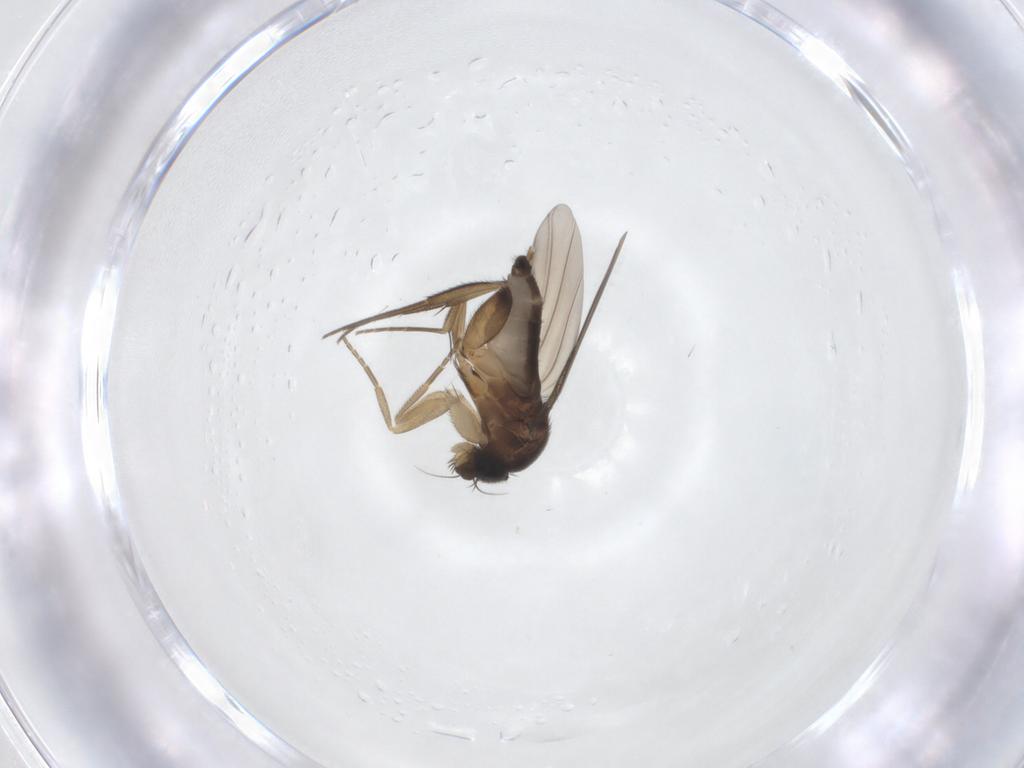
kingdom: Animalia
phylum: Arthropoda
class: Insecta
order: Diptera
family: Phoridae
